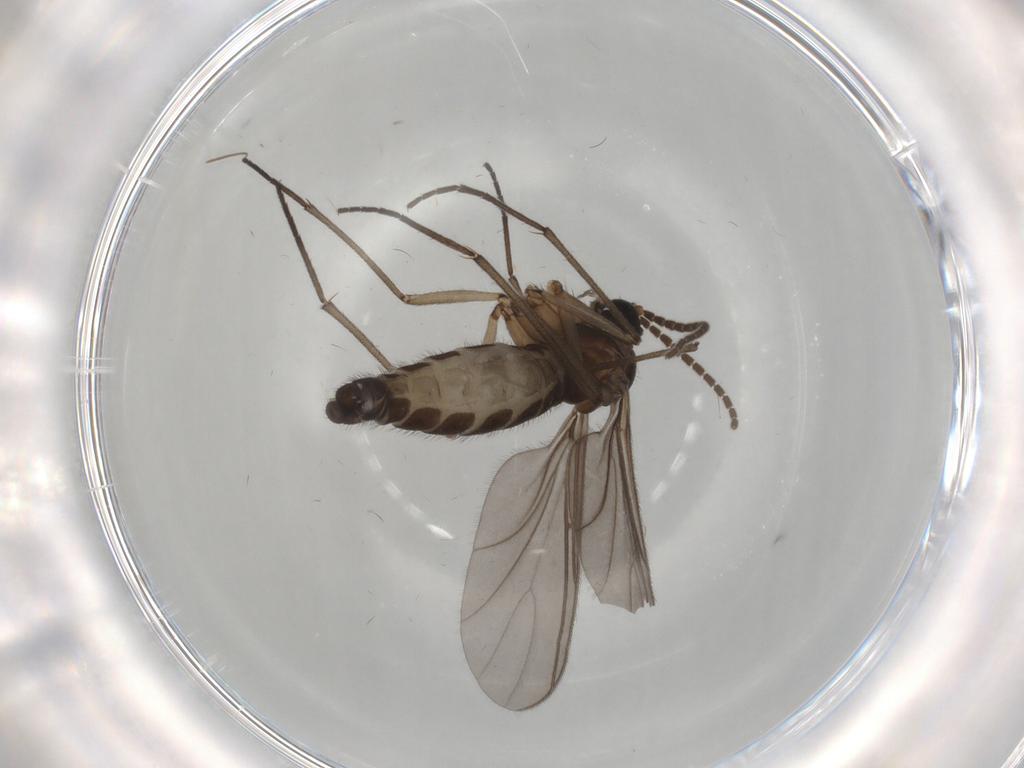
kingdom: Animalia
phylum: Arthropoda
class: Insecta
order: Diptera
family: Sciaridae
